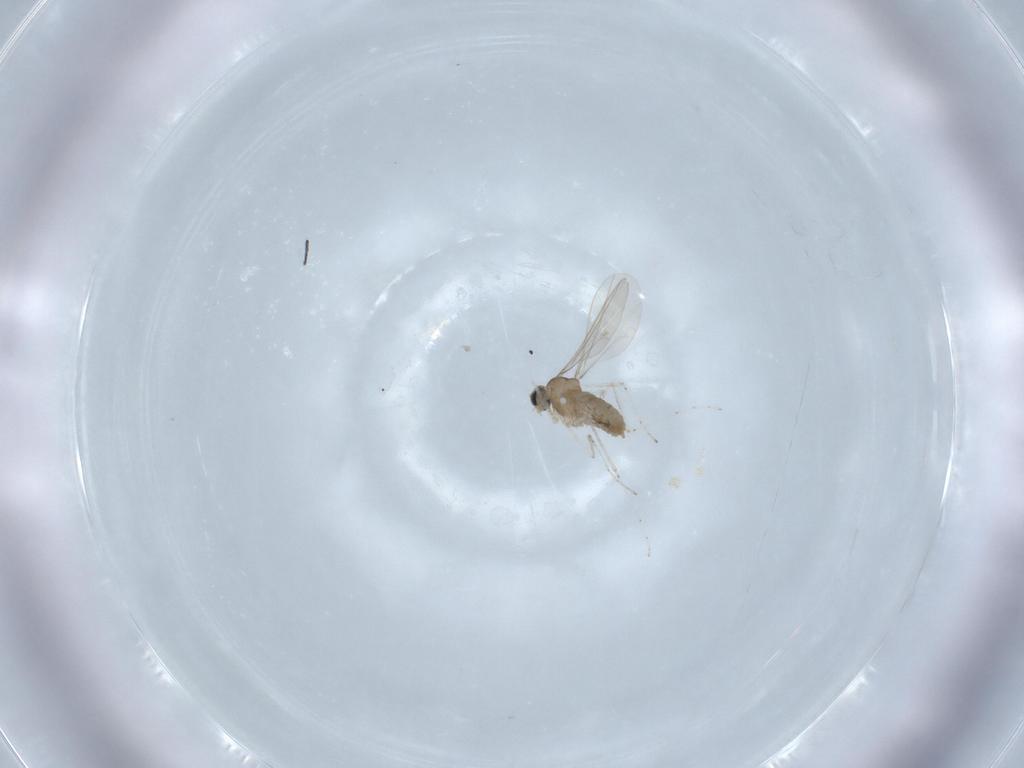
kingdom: Animalia
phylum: Arthropoda
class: Insecta
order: Diptera
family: Cecidomyiidae
